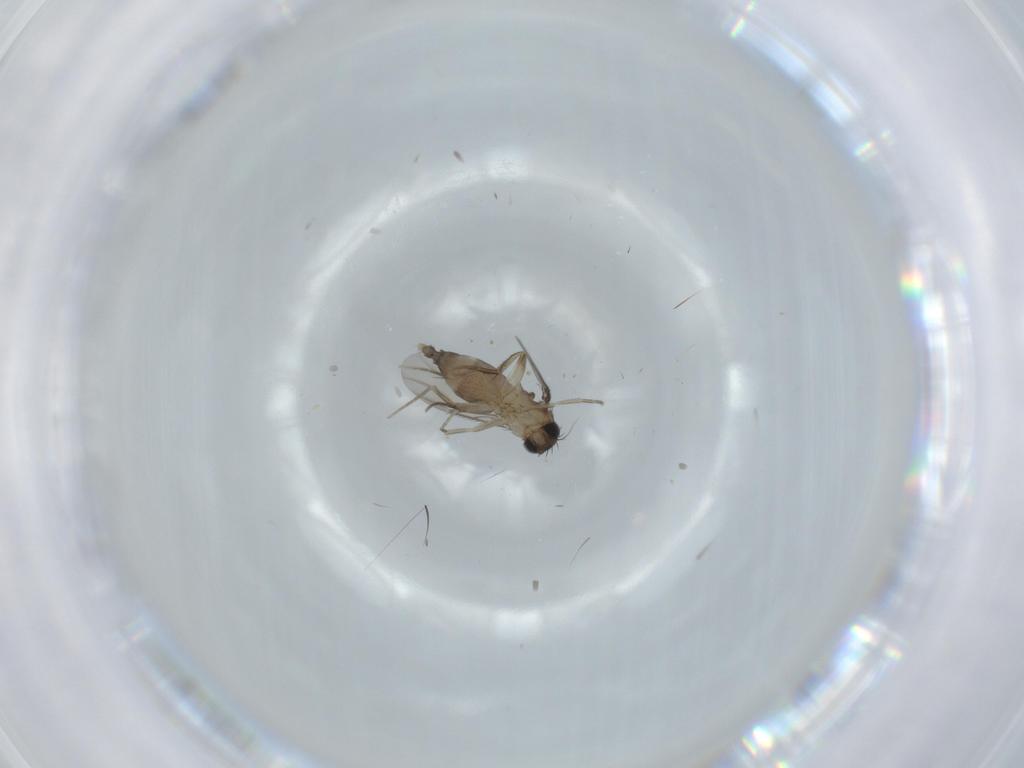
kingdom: Animalia
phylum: Arthropoda
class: Insecta
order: Diptera
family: Phoridae
